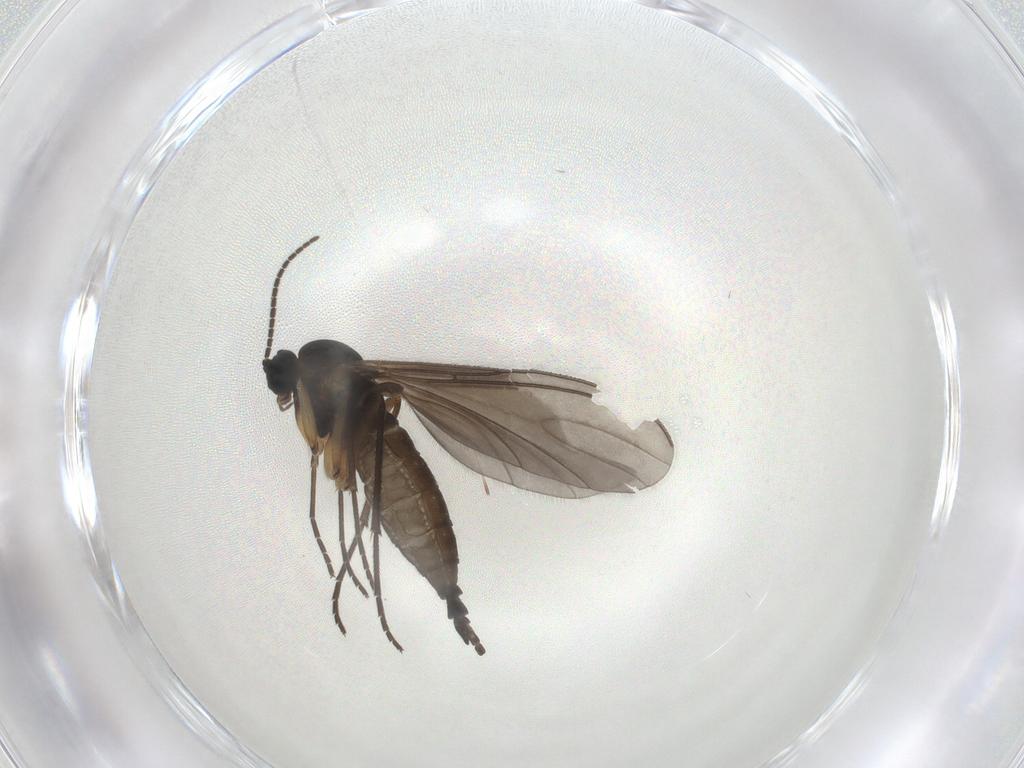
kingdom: Animalia
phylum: Arthropoda
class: Insecta
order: Diptera
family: Sciaridae
